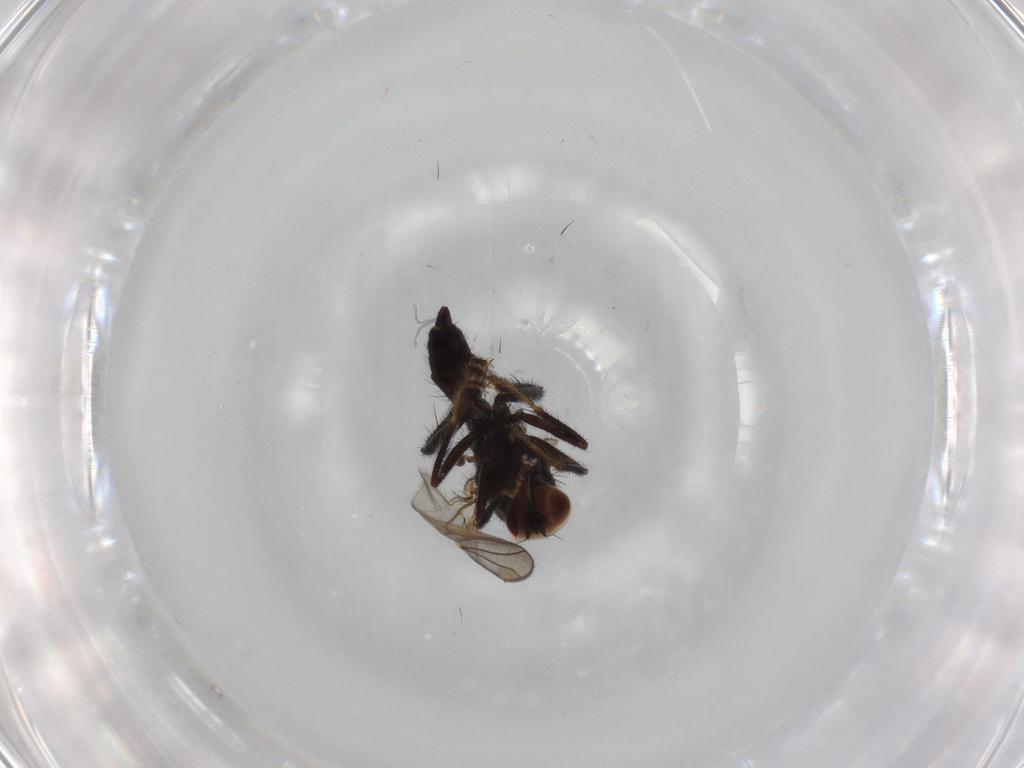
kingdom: Animalia
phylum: Arthropoda
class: Insecta
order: Diptera
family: Hybotidae
